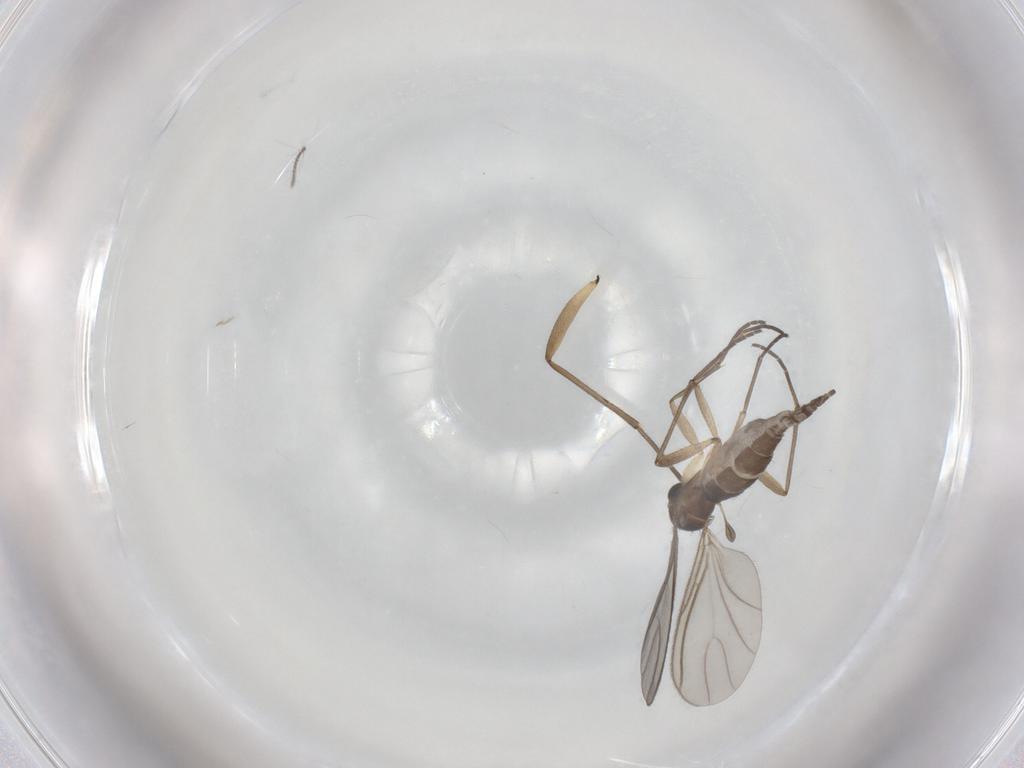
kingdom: Animalia
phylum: Arthropoda
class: Insecta
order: Diptera
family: Sciaridae
